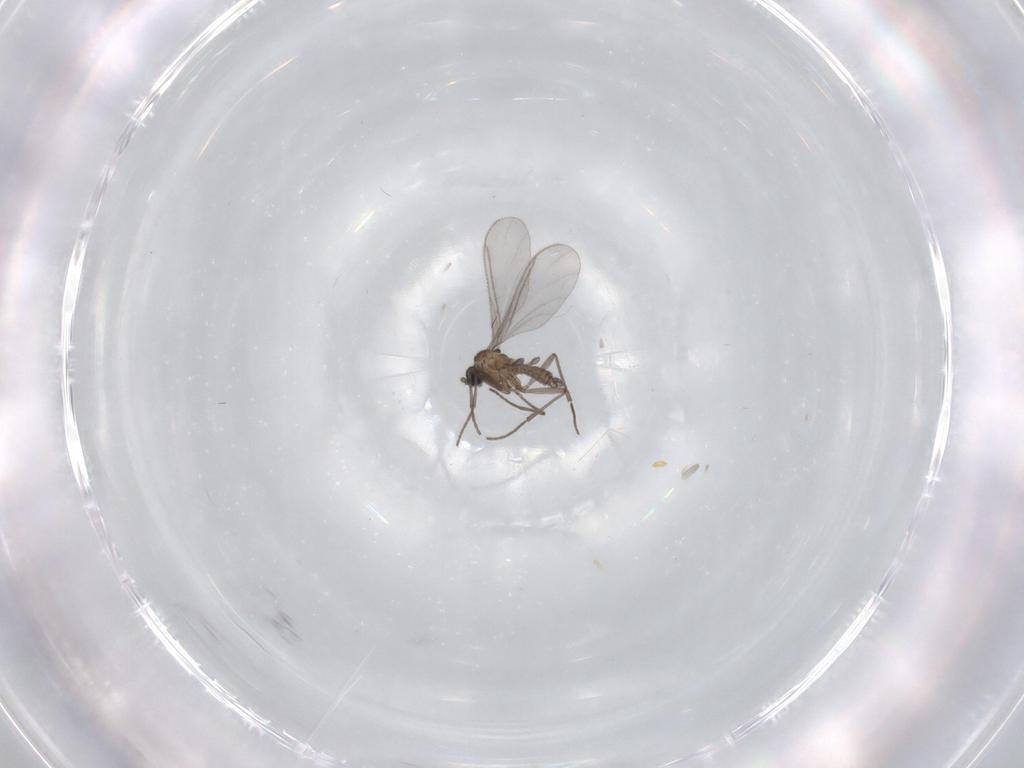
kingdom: Animalia
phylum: Arthropoda
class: Insecta
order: Diptera
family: Sciaridae
